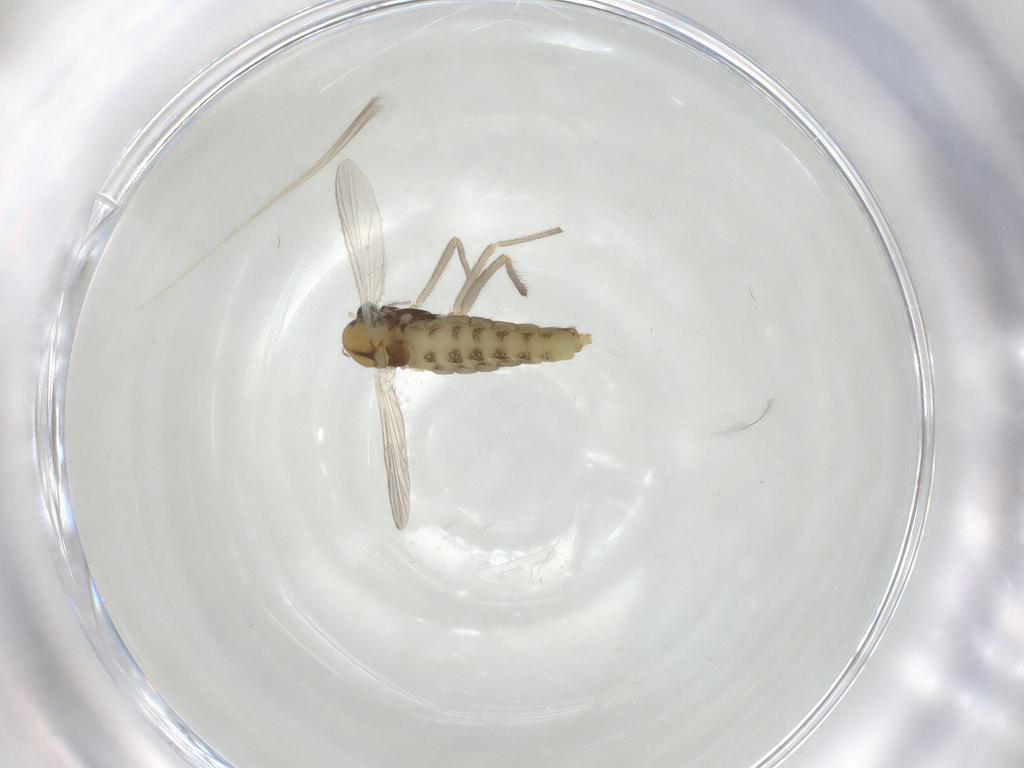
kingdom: Animalia
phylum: Arthropoda
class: Insecta
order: Diptera
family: Chironomidae
